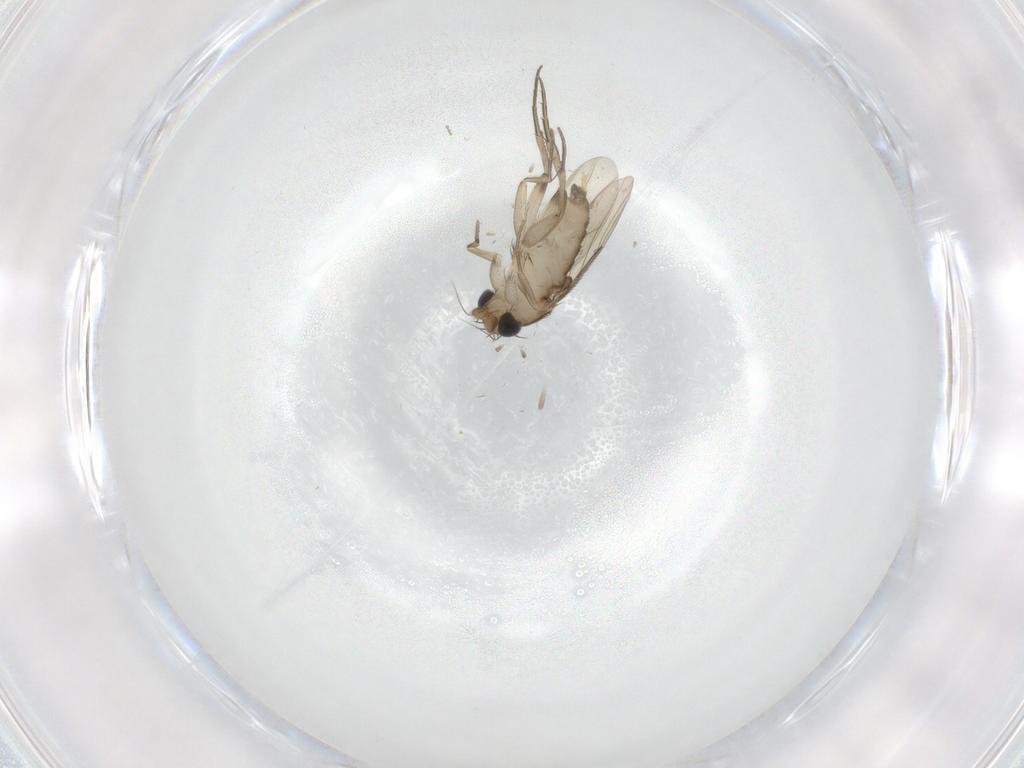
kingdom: Animalia
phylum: Arthropoda
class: Insecta
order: Diptera
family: Phoridae
